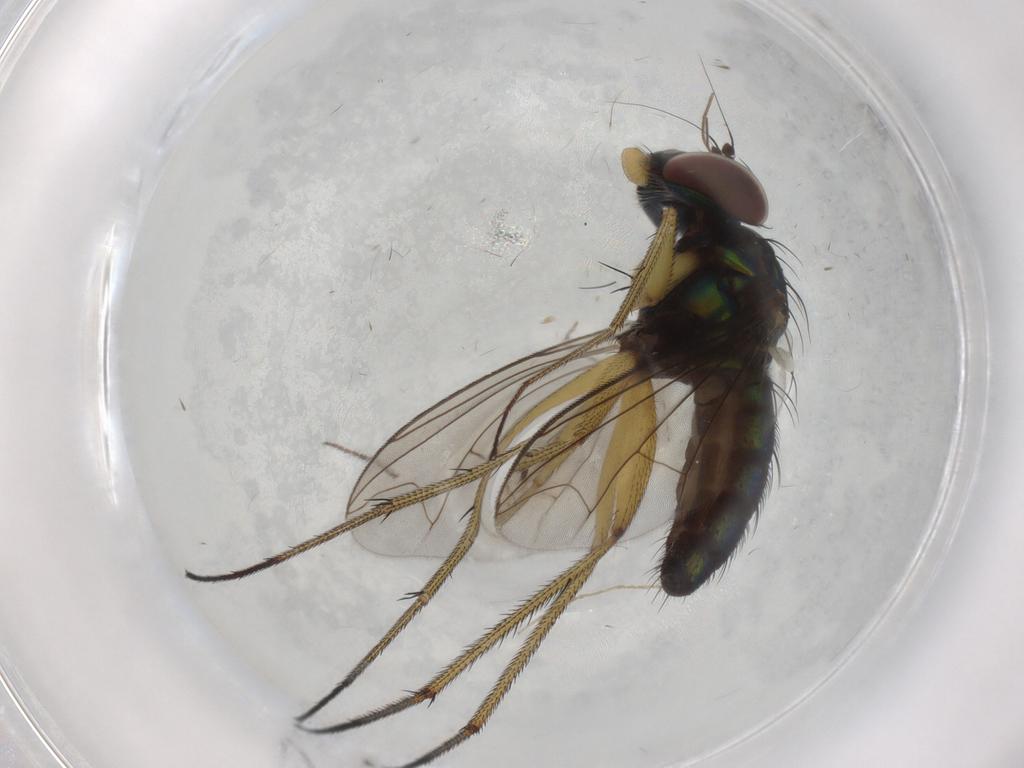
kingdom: Animalia
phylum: Arthropoda
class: Insecta
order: Diptera
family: Dolichopodidae
